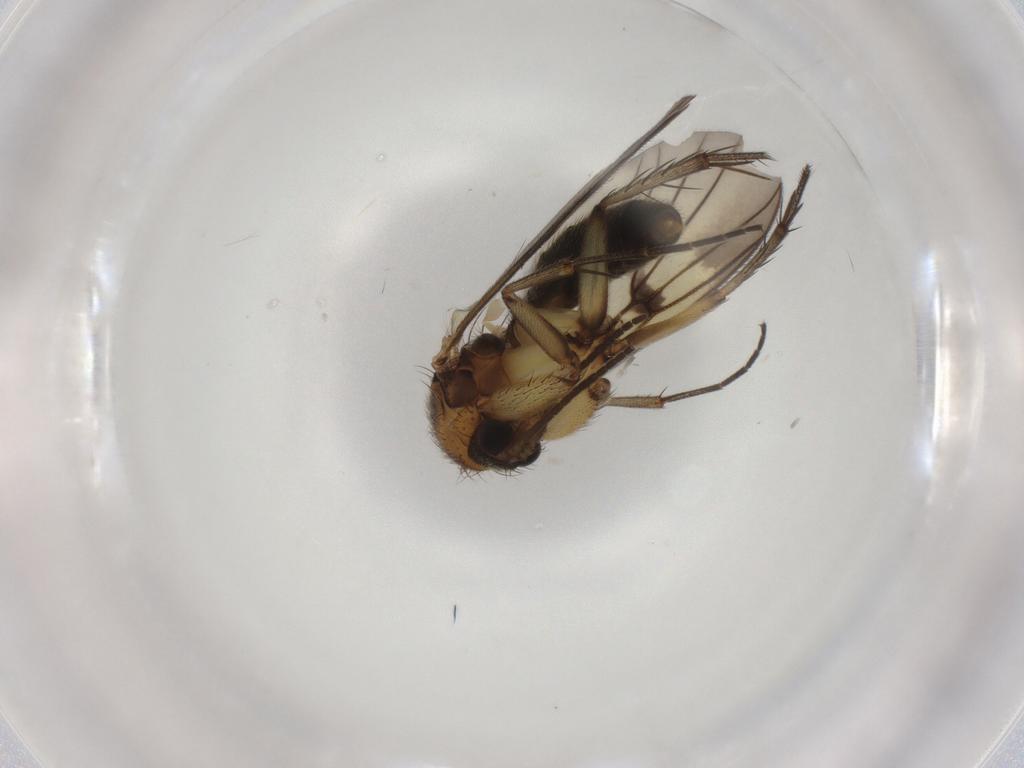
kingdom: Animalia
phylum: Arthropoda
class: Insecta
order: Diptera
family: Mycetophilidae
